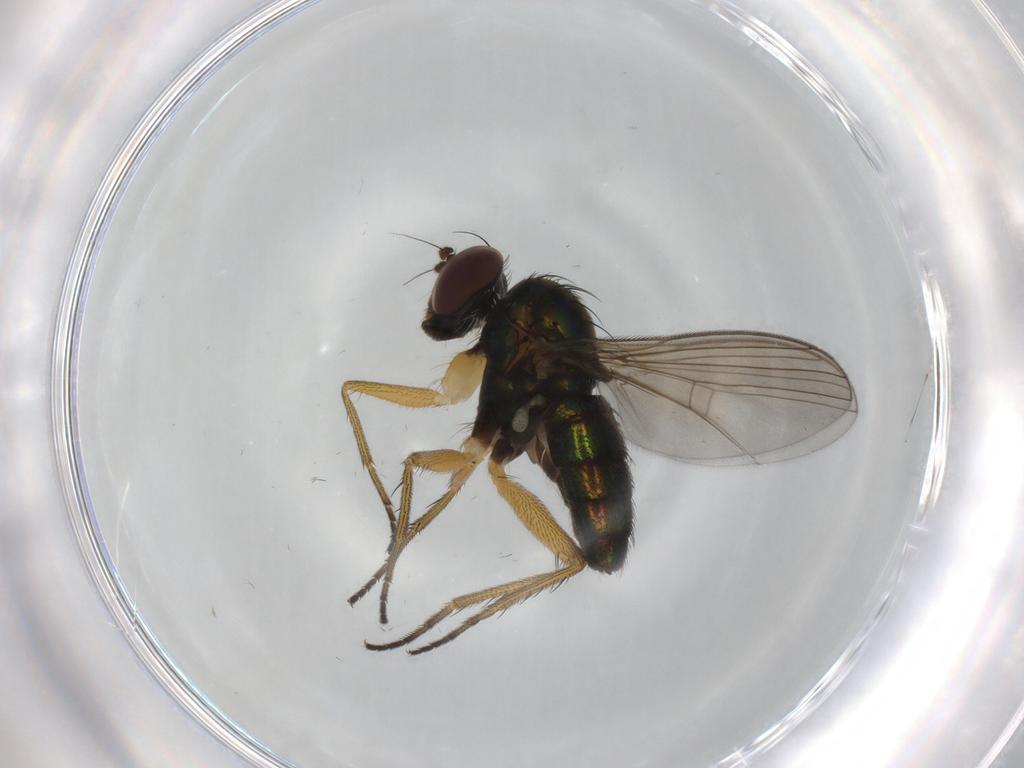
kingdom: Animalia
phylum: Arthropoda
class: Insecta
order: Diptera
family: Dolichopodidae
